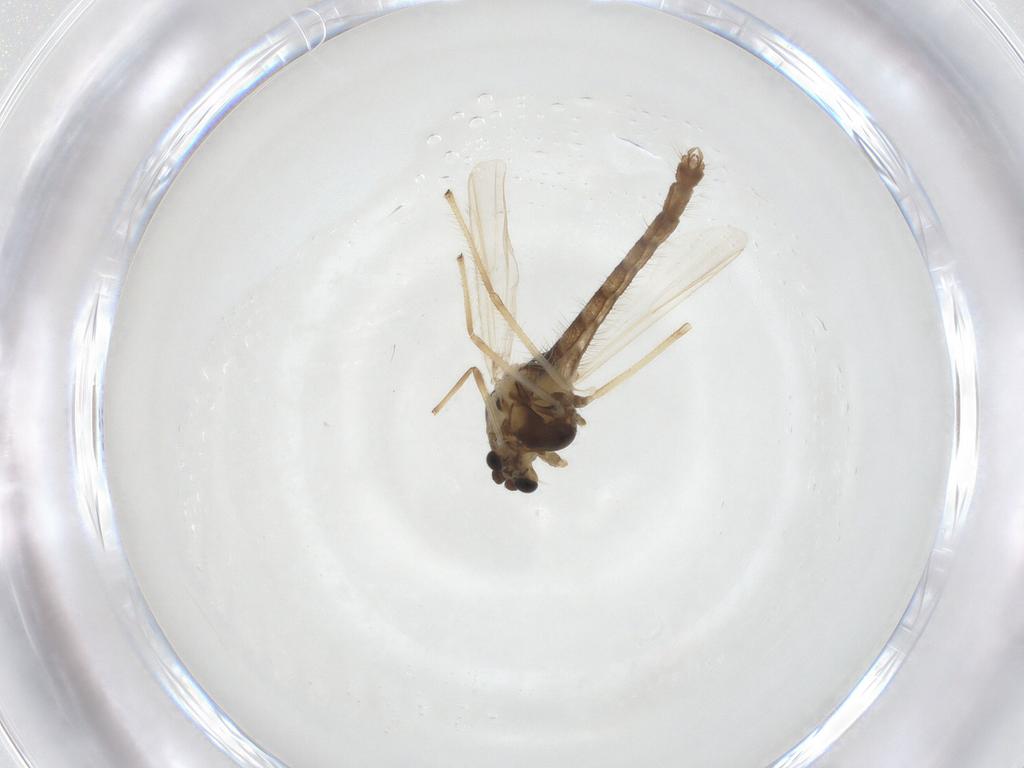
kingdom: Animalia
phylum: Arthropoda
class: Insecta
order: Diptera
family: Chironomidae
